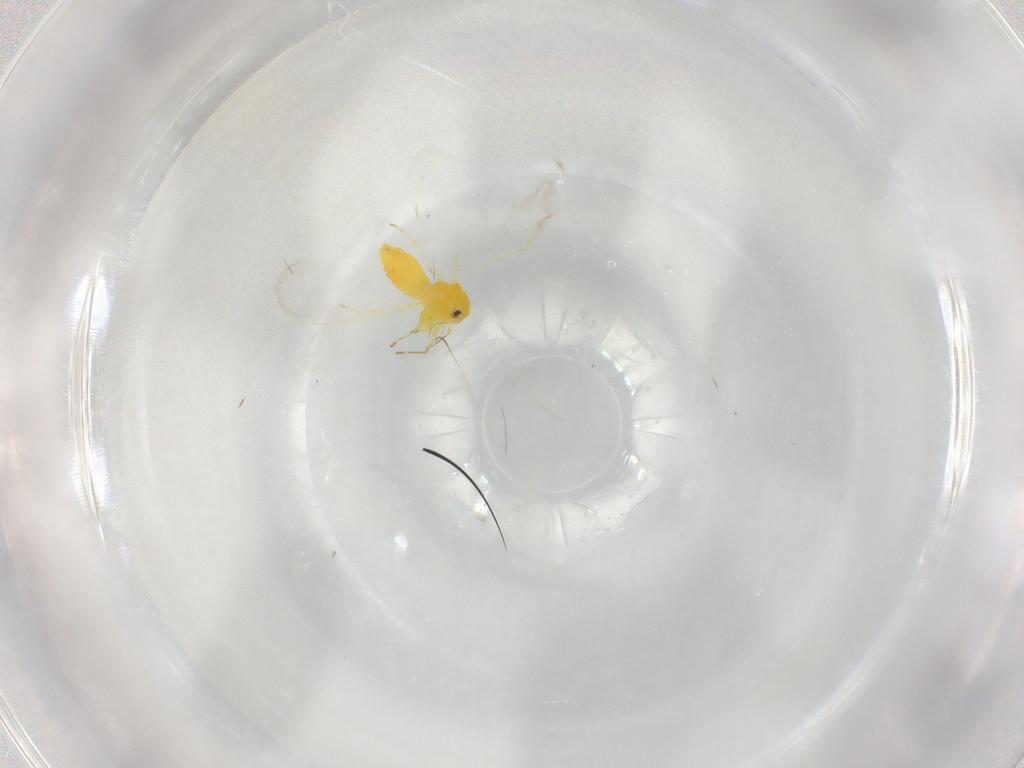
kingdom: Animalia
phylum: Arthropoda
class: Insecta
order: Hemiptera
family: Aleyrodidae
